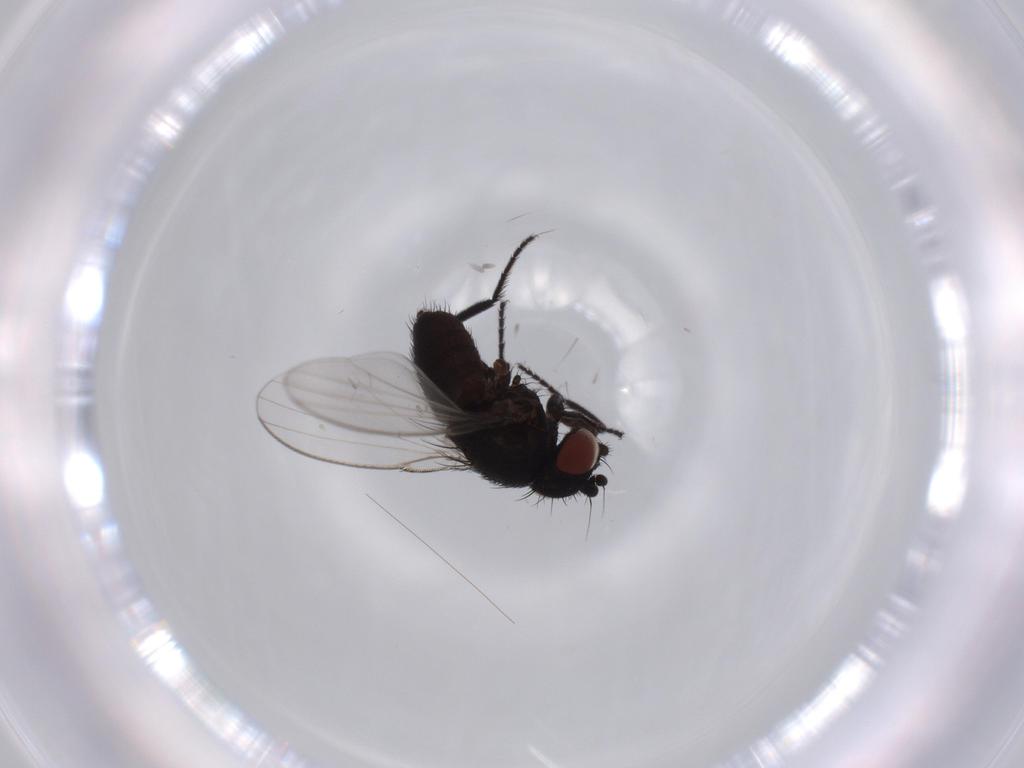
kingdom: Animalia
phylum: Arthropoda
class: Insecta
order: Diptera
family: Milichiidae
